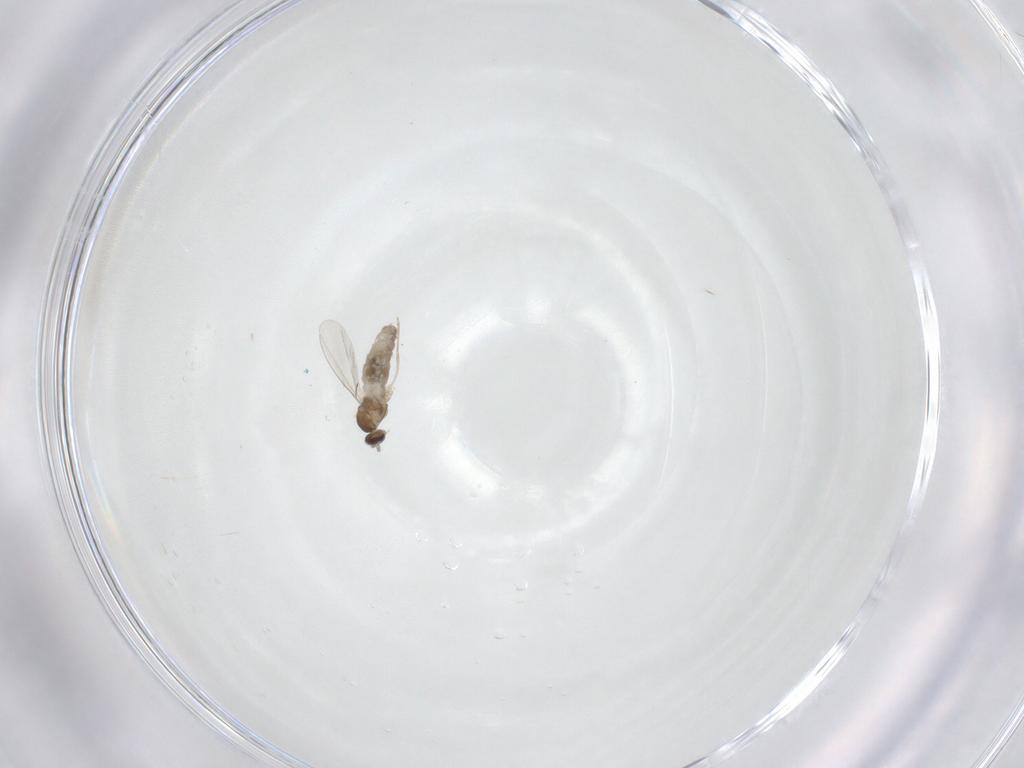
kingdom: Animalia
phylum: Arthropoda
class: Insecta
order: Diptera
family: Cecidomyiidae
